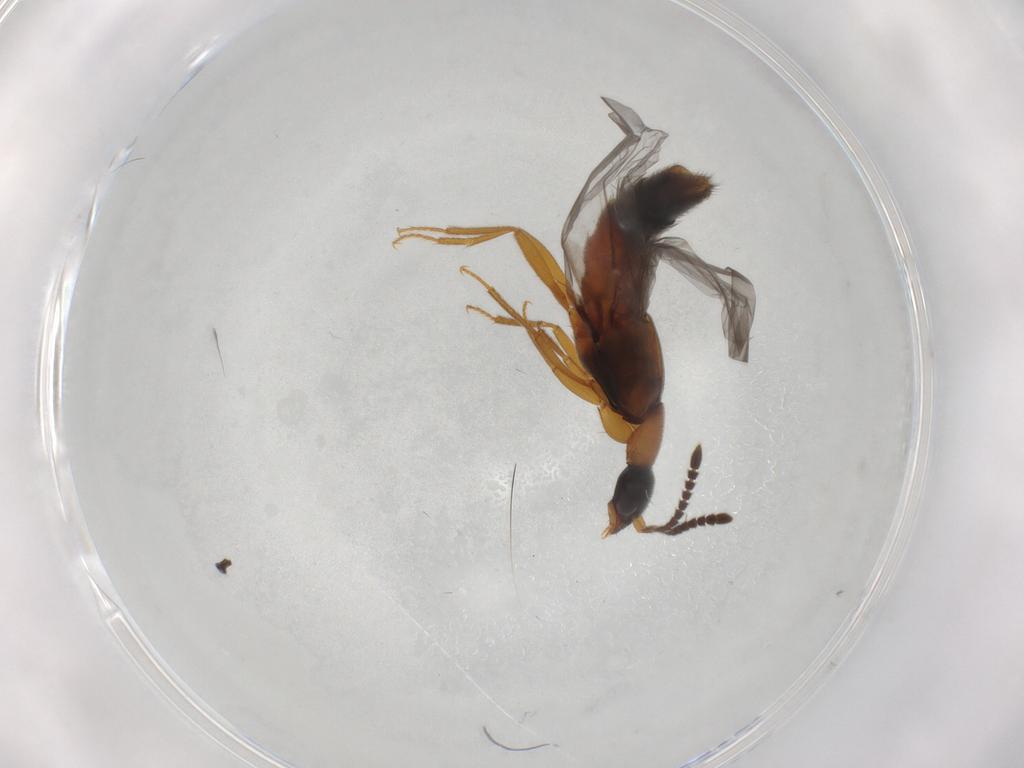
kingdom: Animalia
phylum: Arthropoda
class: Insecta
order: Coleoptera
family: Staphylinidae
